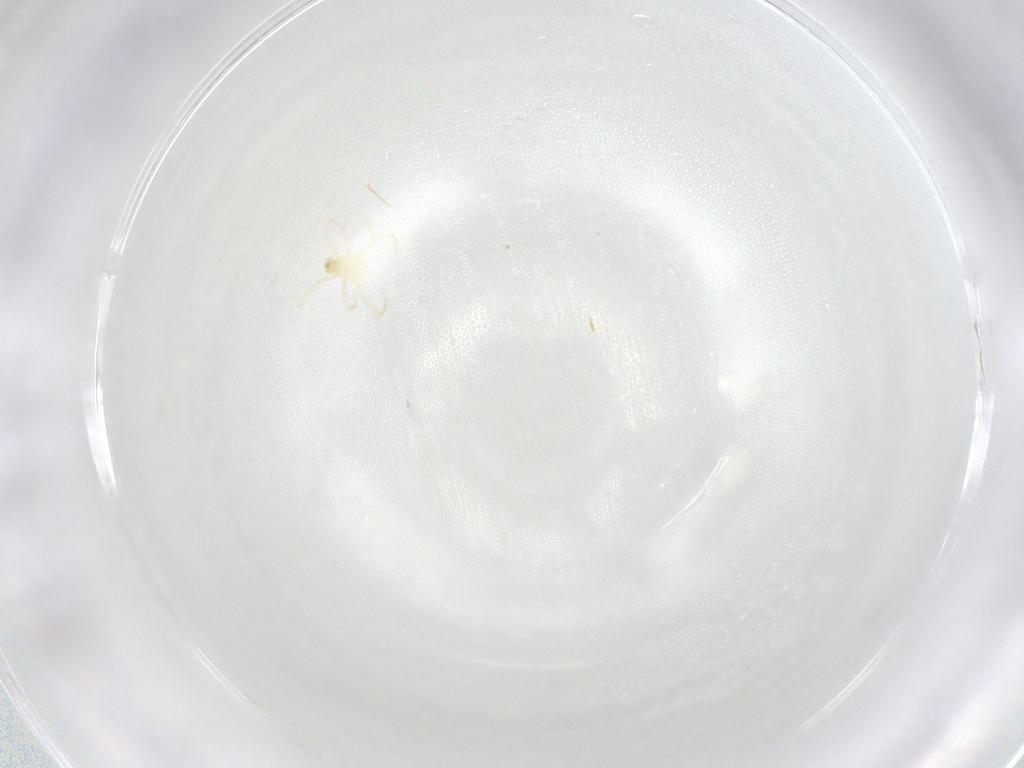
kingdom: Animalia
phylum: Arthropoda
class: Arachnida
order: Trombidiformes
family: Erythraeidae
